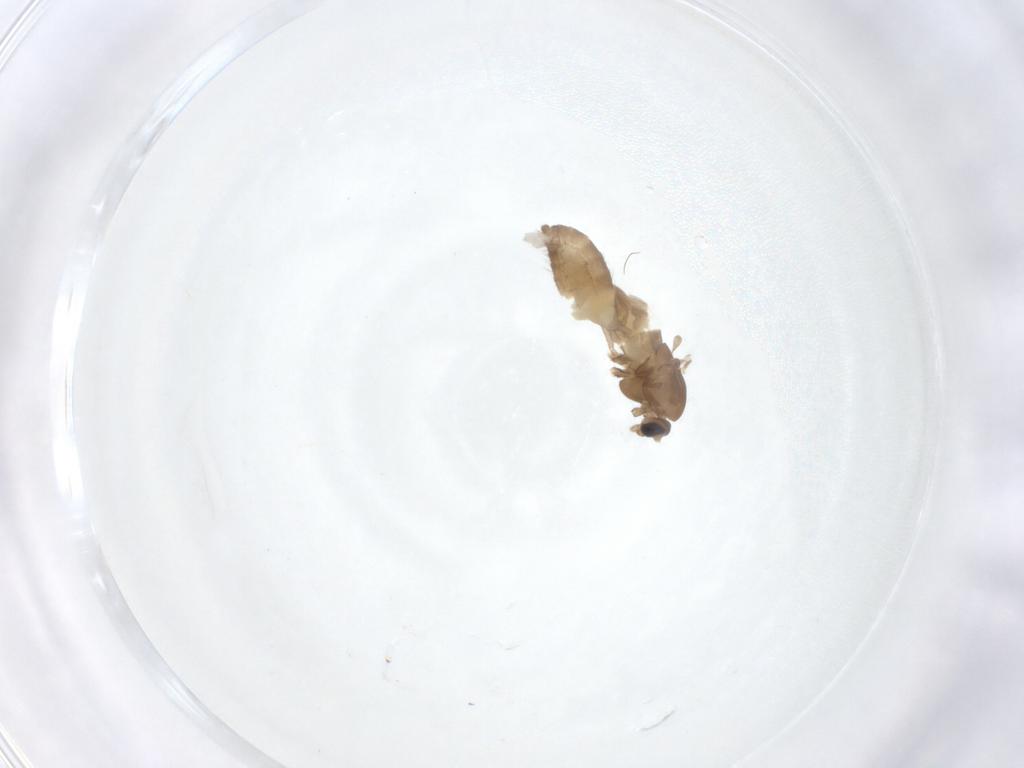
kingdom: Animalia
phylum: Arthropoda
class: Insecta
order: Diptera
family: Chironomidae
